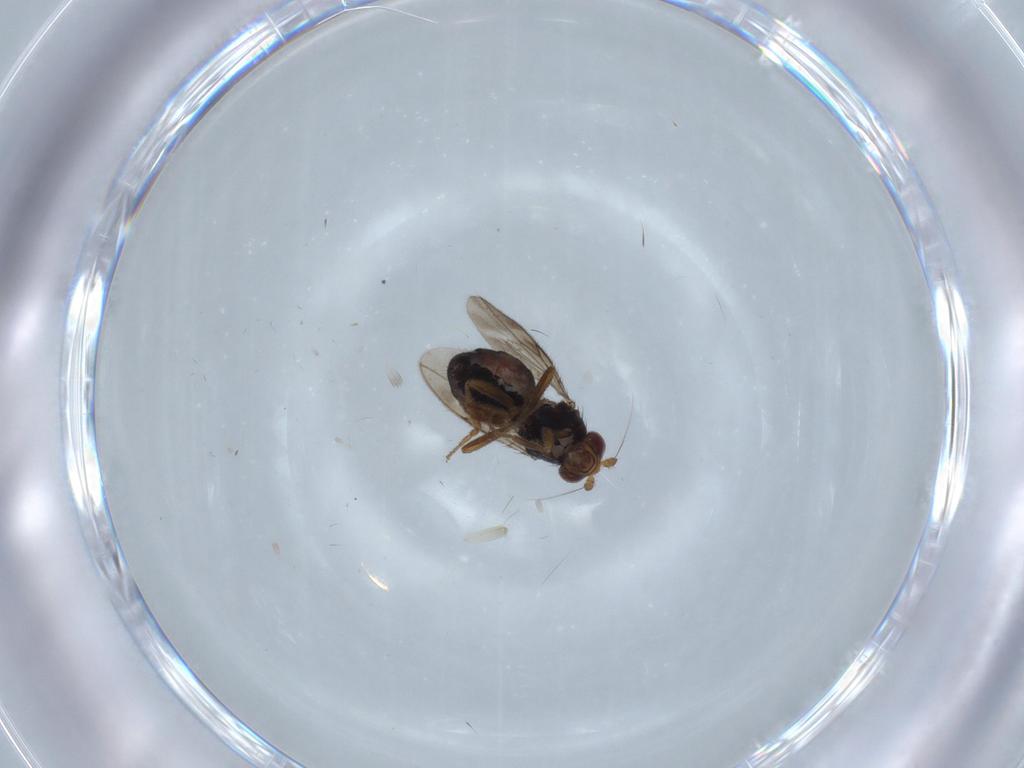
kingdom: Animalia
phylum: Arthropoda
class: Insecta
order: Diptera
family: Sphaeroceridae
